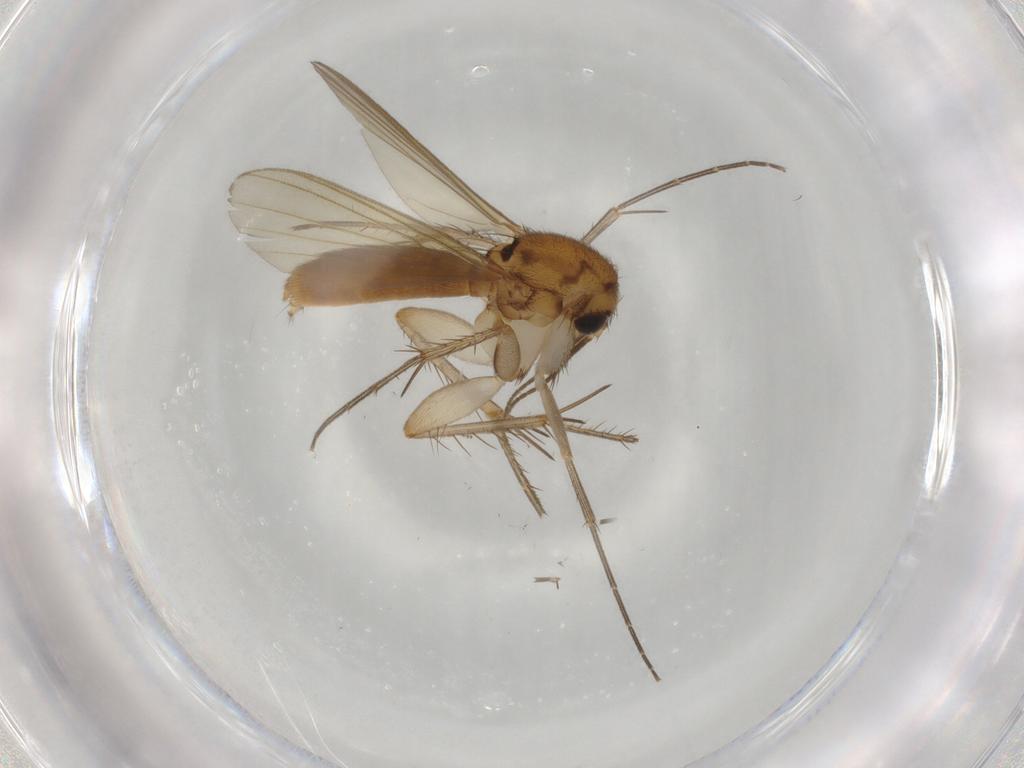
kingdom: Animalia
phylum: Arthropoda
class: Insecta
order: Diptera
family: Mycetophilidae
